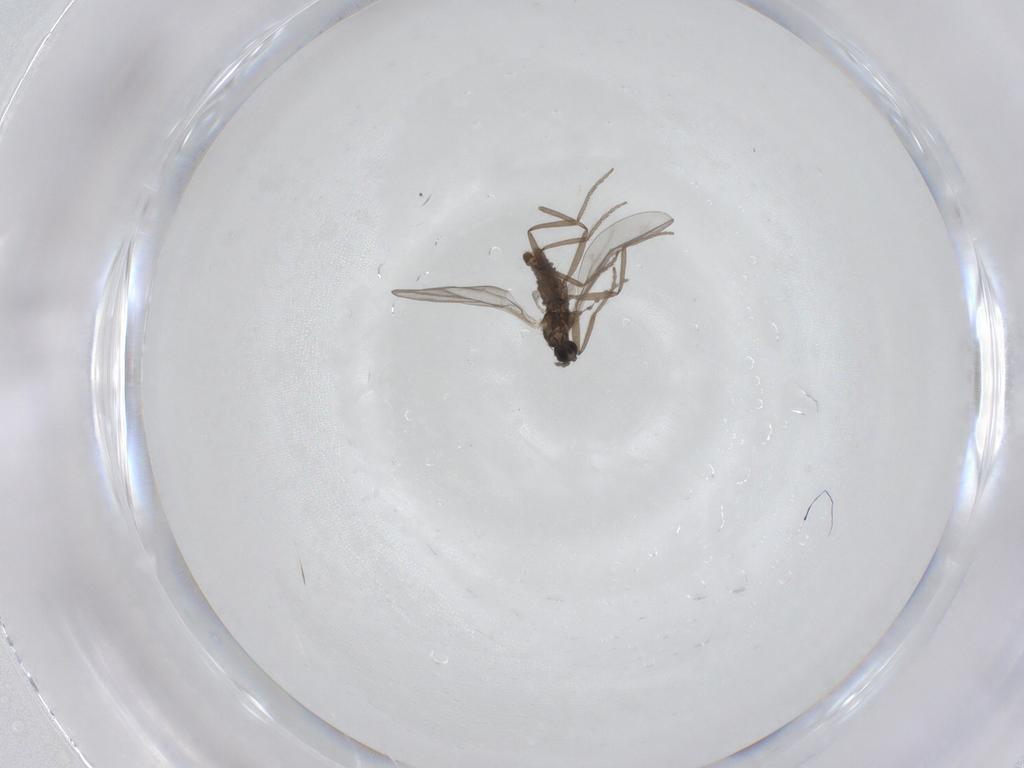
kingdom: Animalia
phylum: Arthropoda
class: Insecta
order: Diptera
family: Cecidomyiidae
